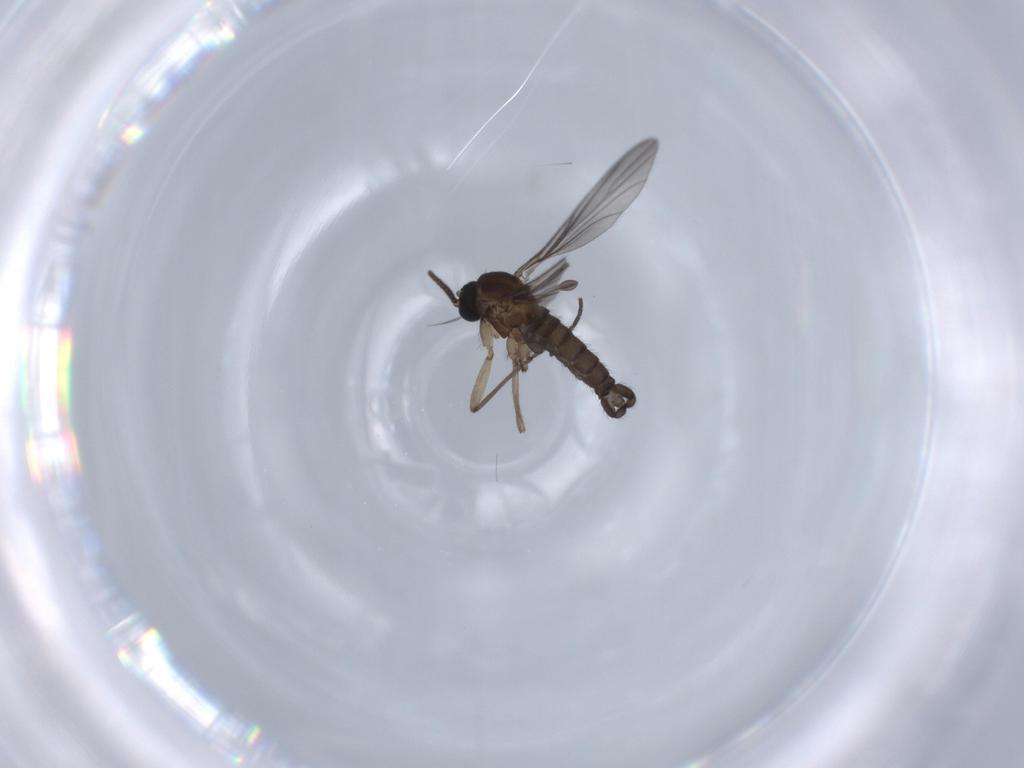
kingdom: Animalia
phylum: Arthropoda
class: Insecta
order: Diptera
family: Sciaridae
